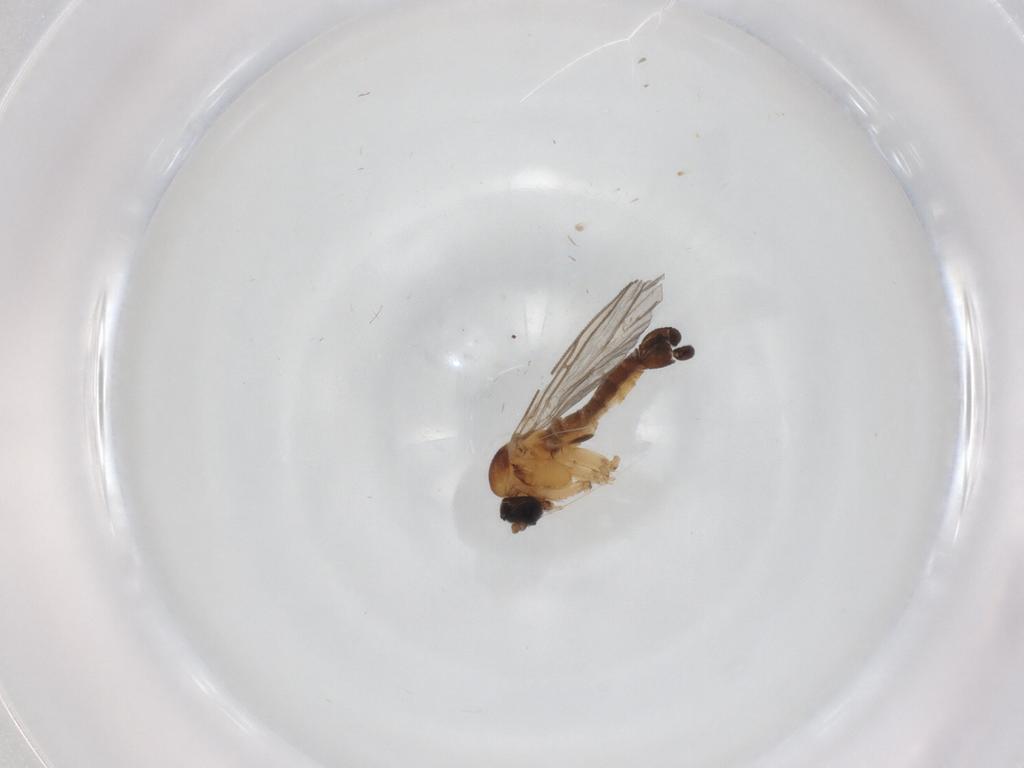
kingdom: Animalia
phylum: Arthropoda
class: Insecta
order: Diptera
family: Sciaridae
